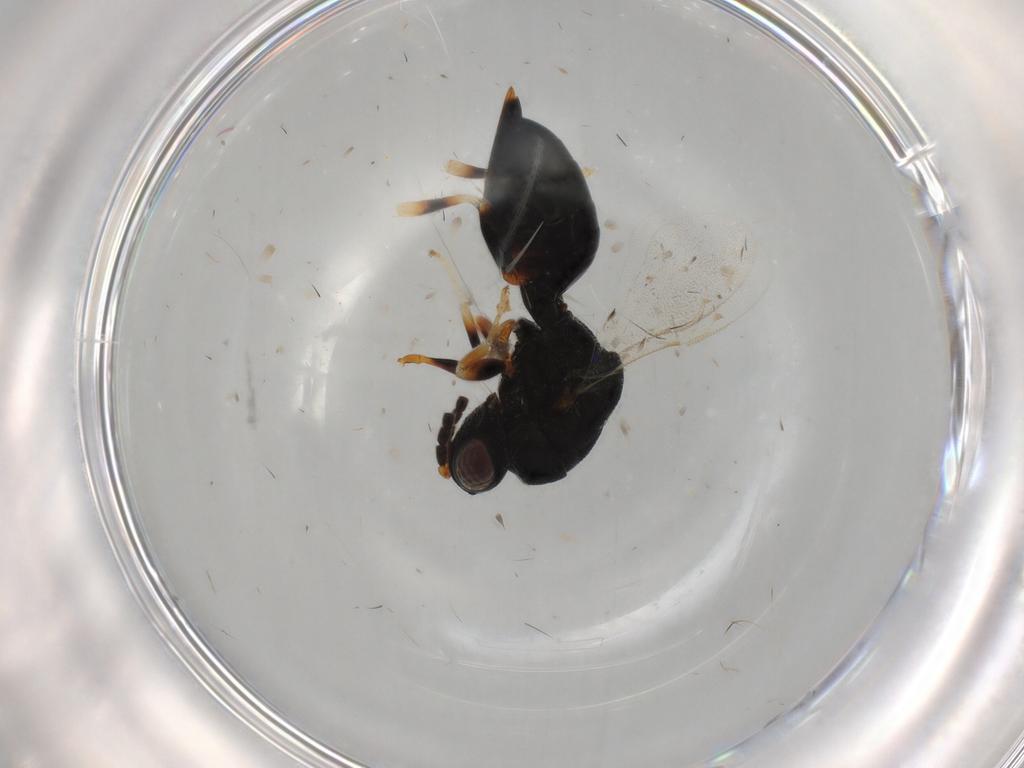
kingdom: Animalia
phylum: Arthropoda
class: Insecta
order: Hymenoptera
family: Eurytomidae
